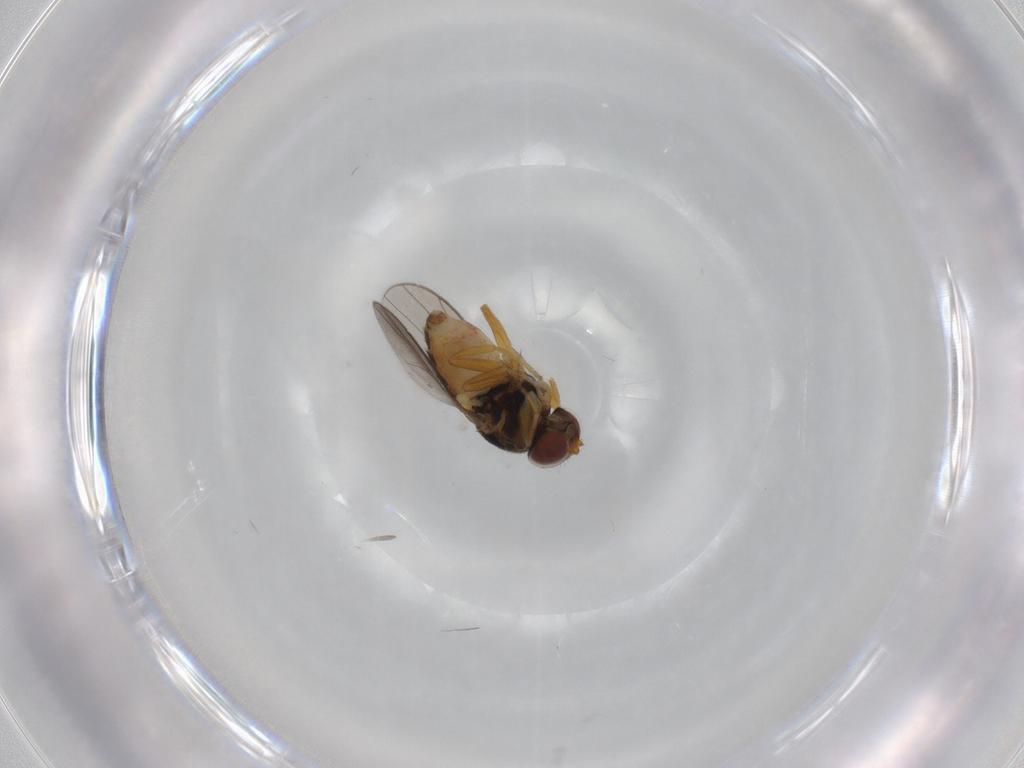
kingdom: Animalia
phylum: Arthropoda
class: Insecta
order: Diptera
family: Chloropidae
